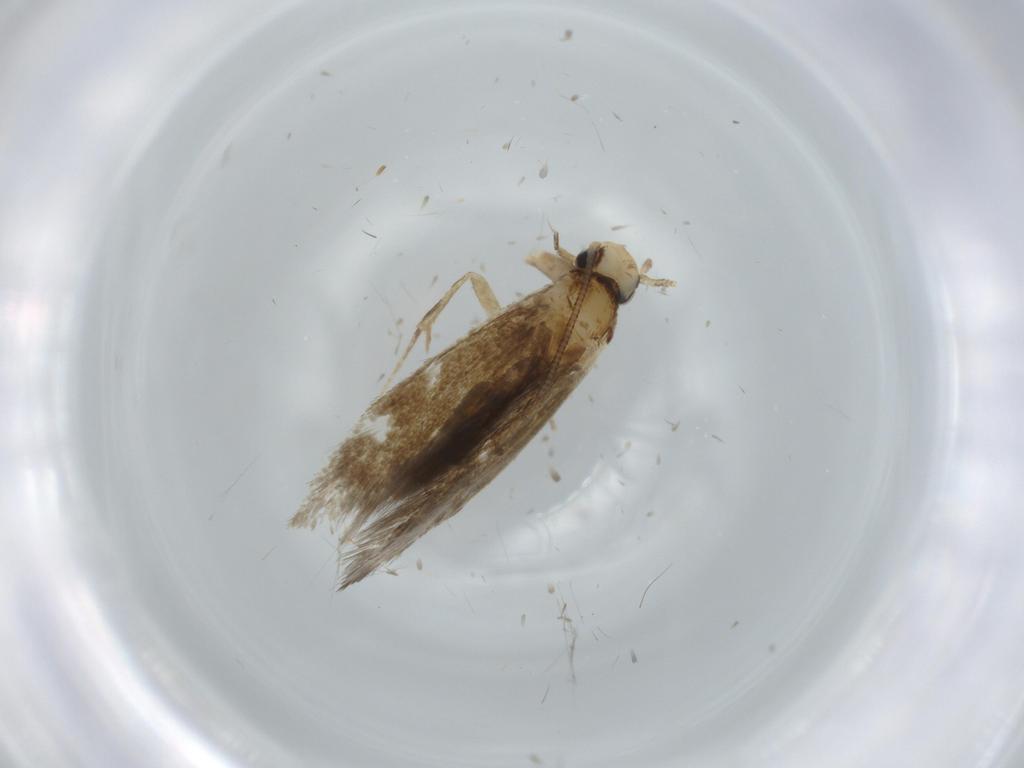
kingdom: Animalia
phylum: Arthropoda
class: Insecta
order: Lepidoptera
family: Tineidae
